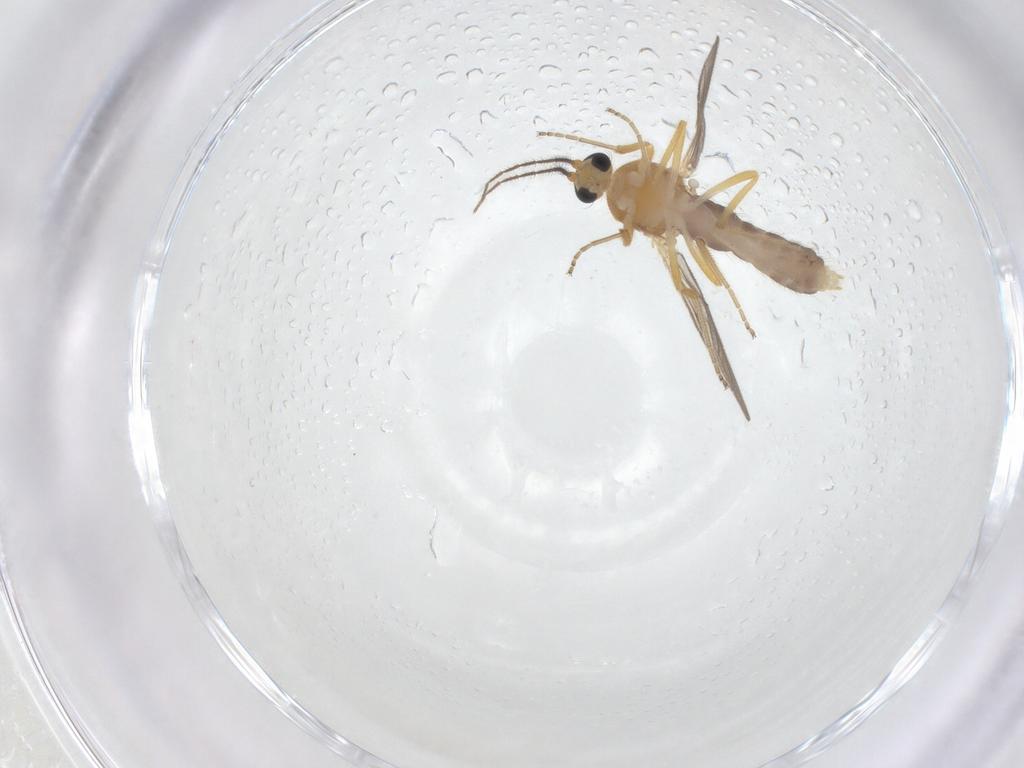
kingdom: Animalia
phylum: Arthropoda
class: Insecta
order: Diptera
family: Ceratopogonidae
